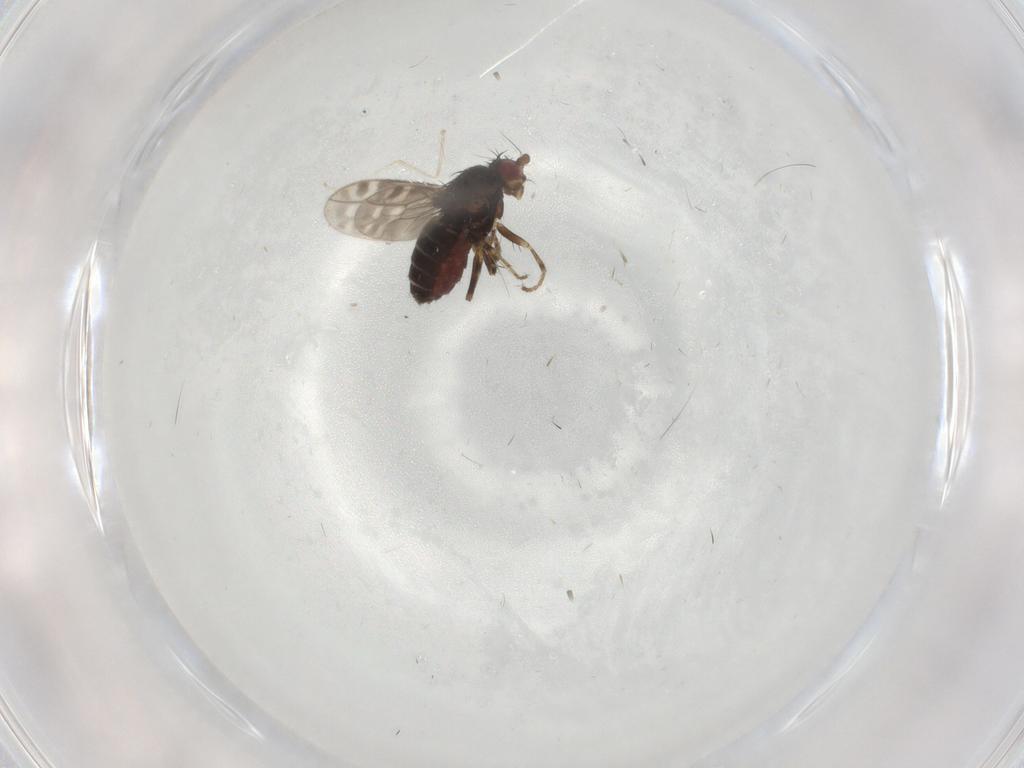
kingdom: Animalia
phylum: Arthropoda
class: Insecta
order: Diptera
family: Sphaeroceridae
